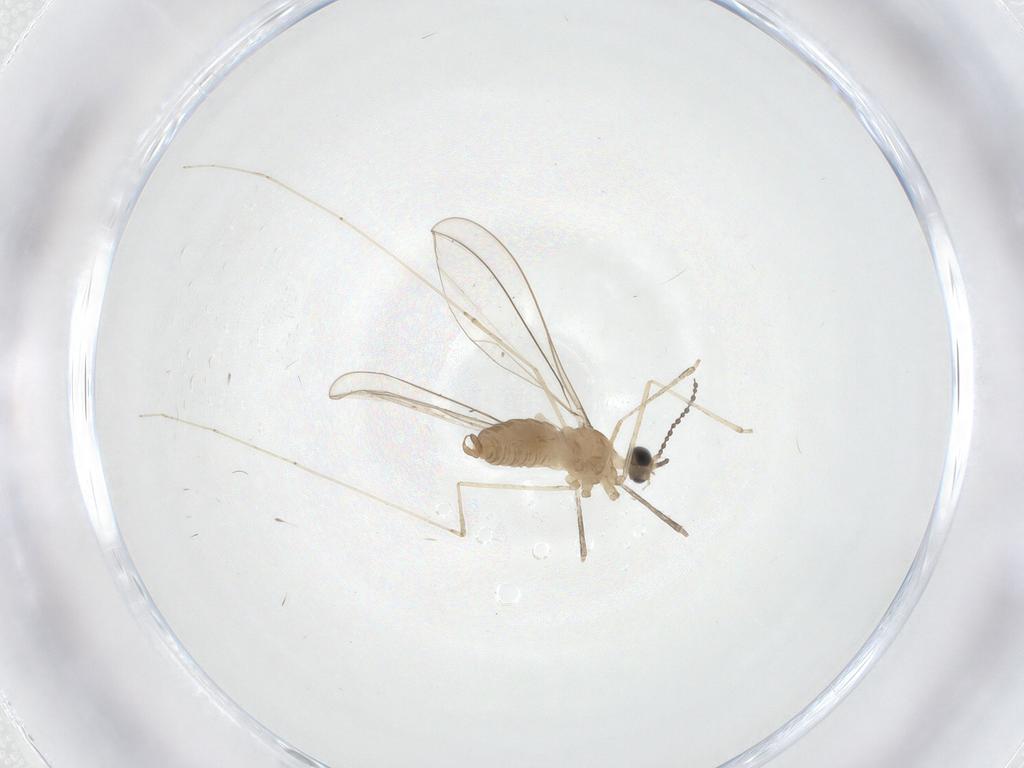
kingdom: Animalia
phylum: Arthropoda
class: Insecta
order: Diptera
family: Cecidomyiidae
